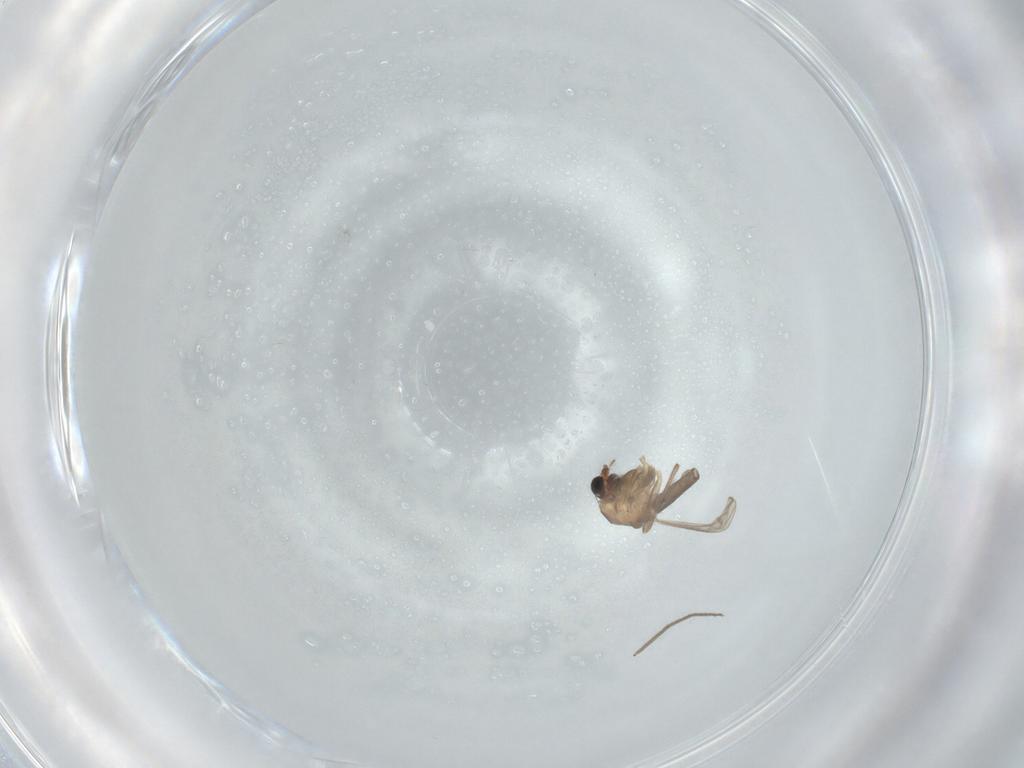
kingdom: Animalia
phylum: Arthropoda
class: Insecta
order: Diptera
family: Chironomidae
